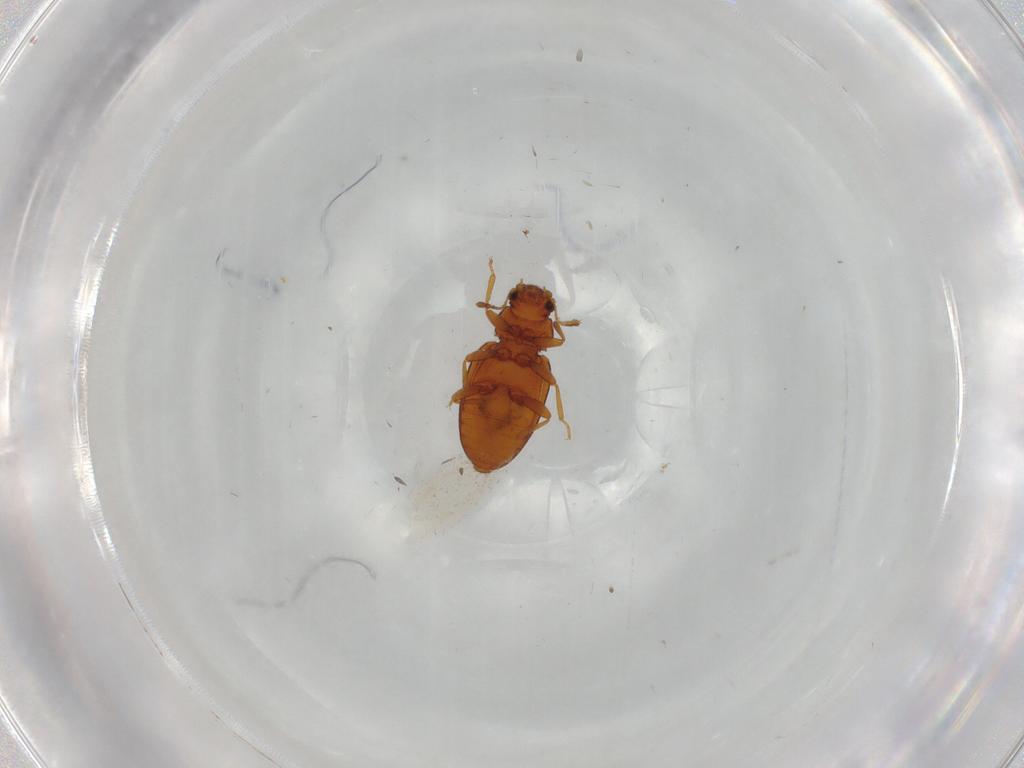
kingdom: Animalia
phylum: Arthropoda
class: Insecta
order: Coleoptera
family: Latridiidae
